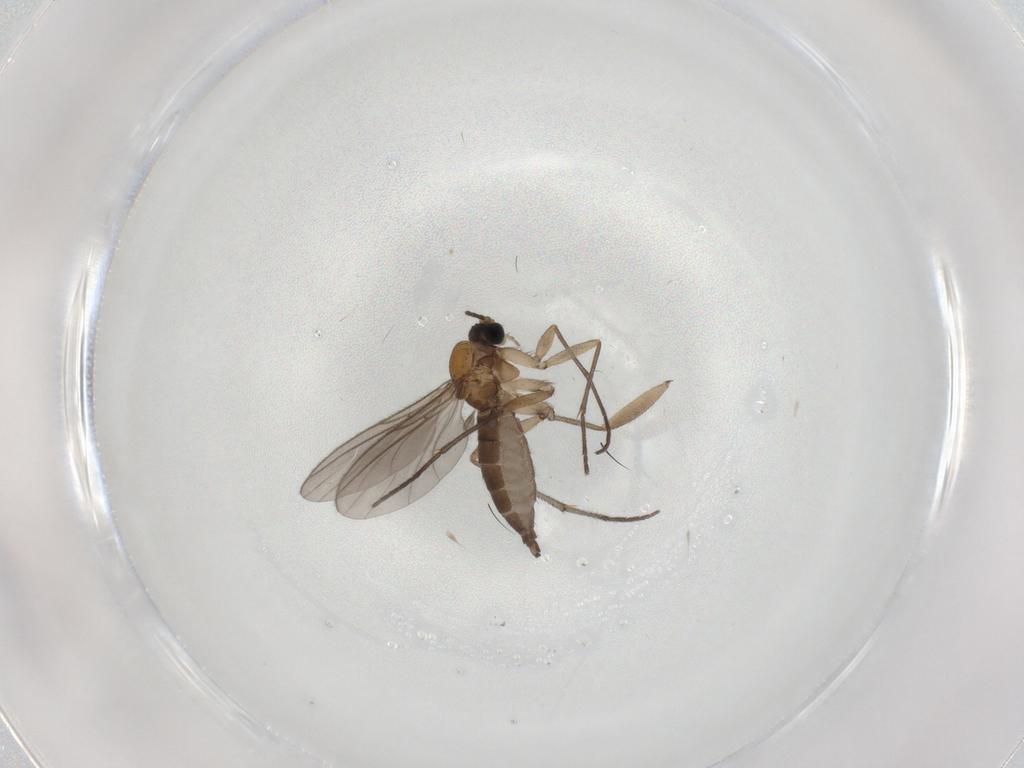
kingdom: Animalia
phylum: Arthropoda
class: Insecta
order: Diptera
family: Sciaridae
